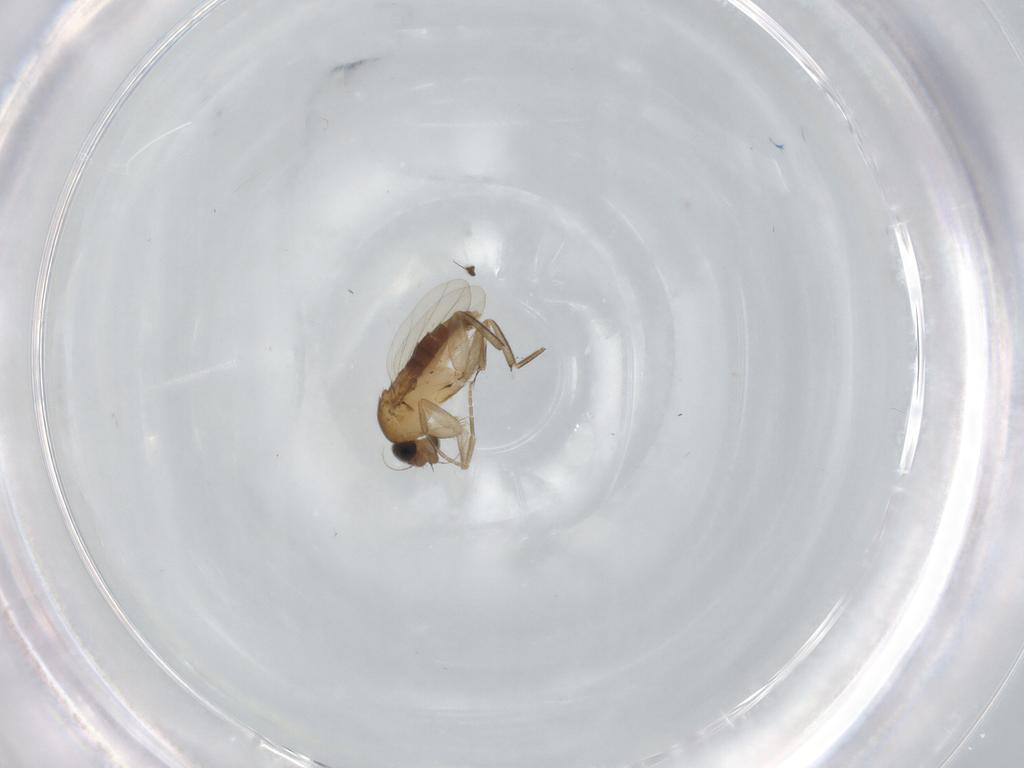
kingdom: Animalia
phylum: Arthropoda
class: Insecta
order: Diptera
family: Phoridae
